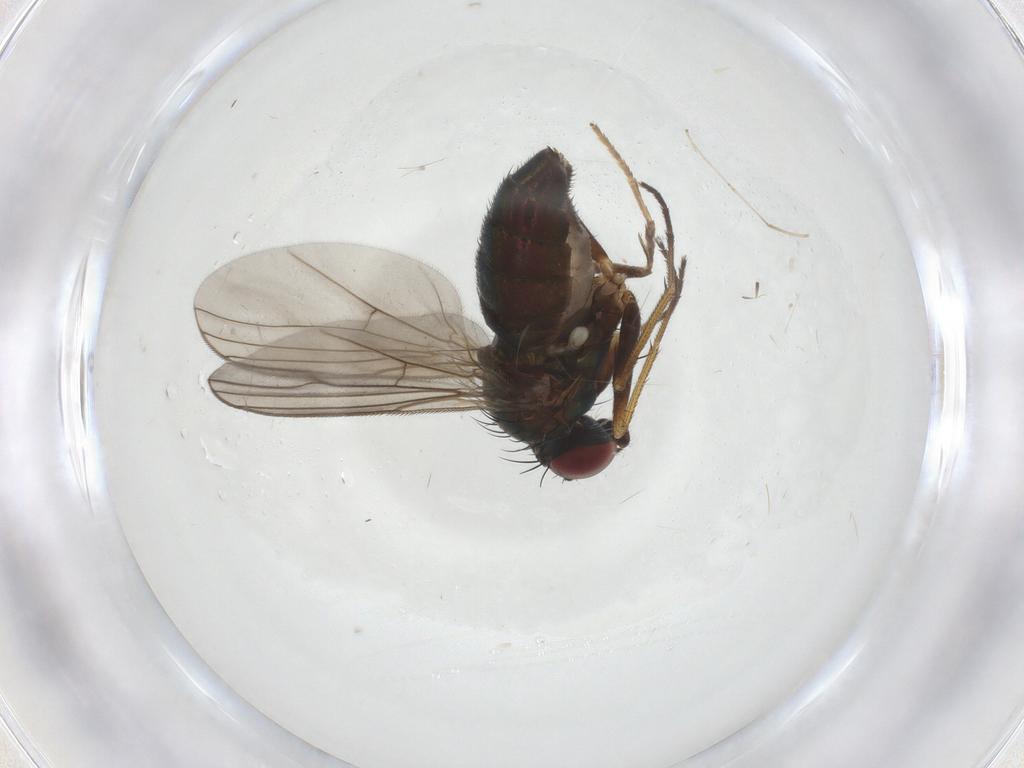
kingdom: Animalia
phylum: Arthropoda
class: Insecta
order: Diptera
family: Dolichopodidae
